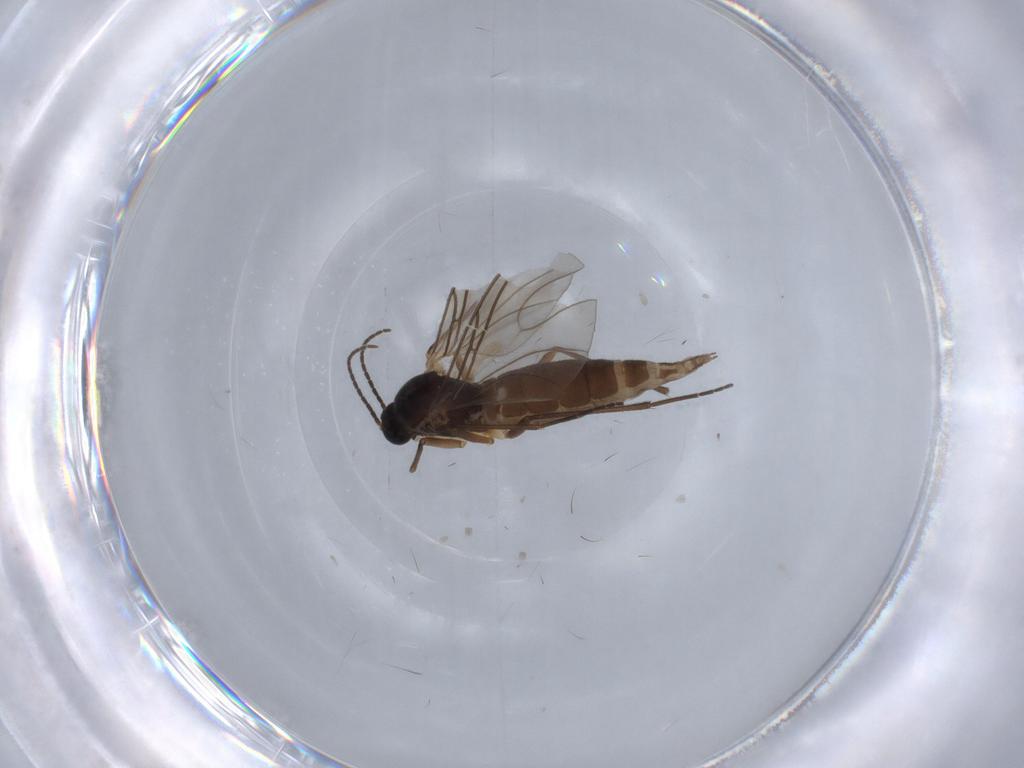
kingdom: Animalia
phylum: Arthropoda
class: Insecta
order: Diptera
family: Sciaridae
